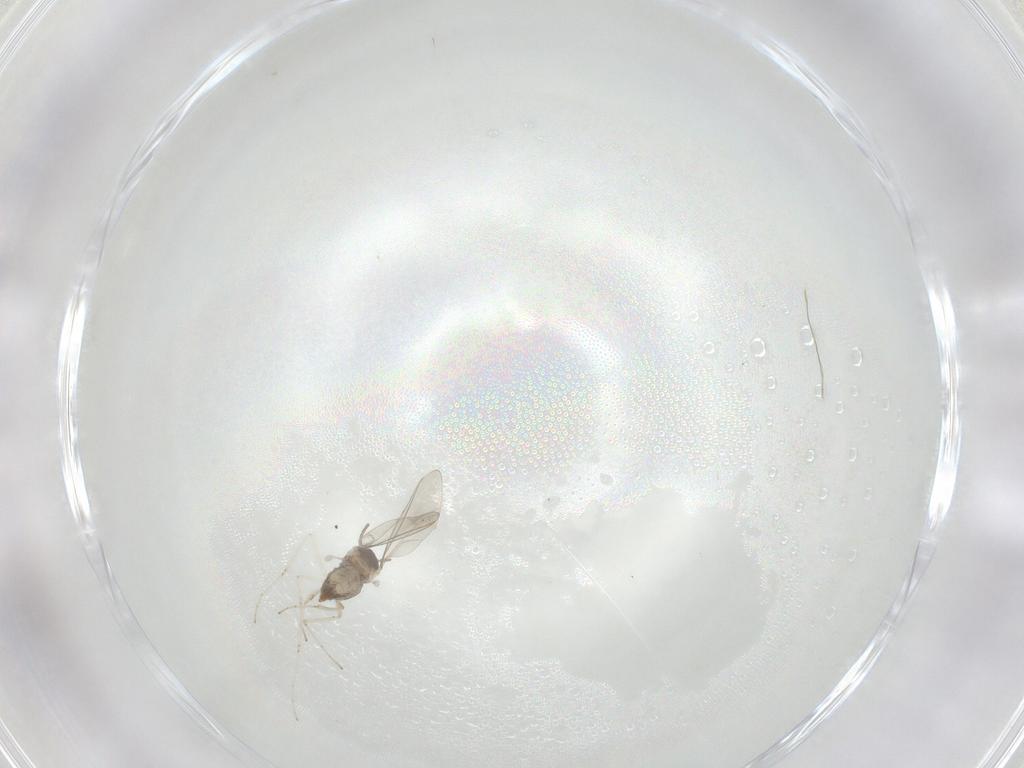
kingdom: Animalia
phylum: Arthropoda
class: Insecta
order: Diptera
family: Cecidomyiidae
